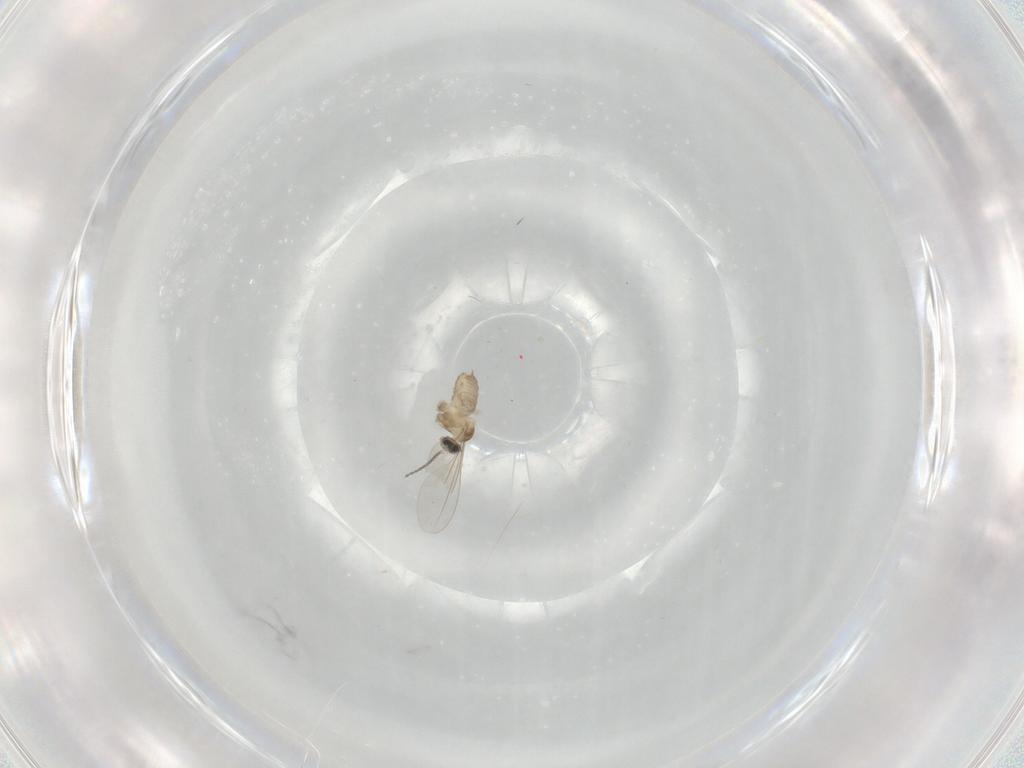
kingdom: Animalia
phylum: Arthropoda
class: Insecta
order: Diptera
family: Cecidomyiidae
